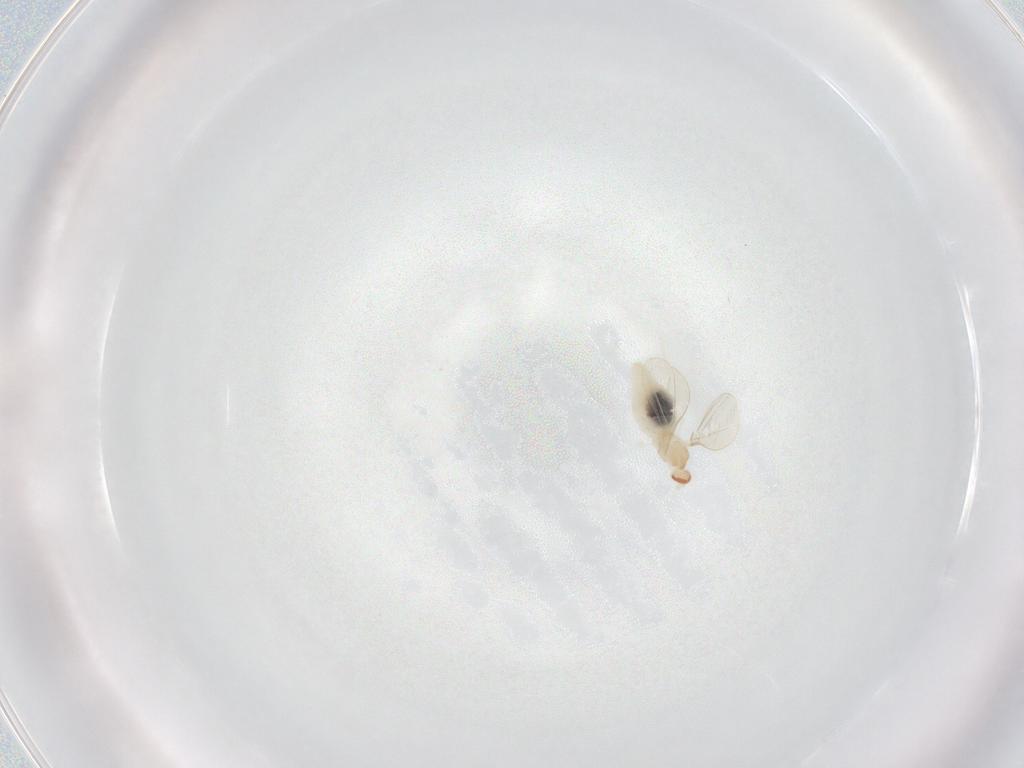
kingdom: Animalia
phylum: Arthropoda
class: Insecta
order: Diptera
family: Cecidomyiidae
